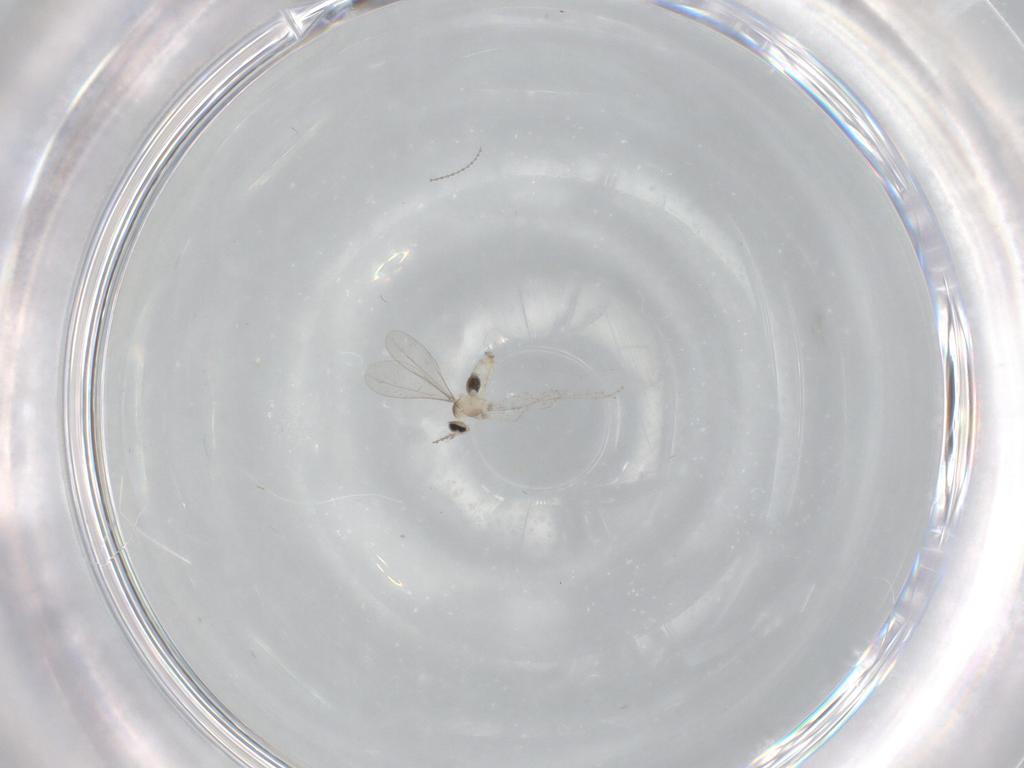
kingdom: Animalia
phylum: Arthropoda
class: Insecta
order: Diptera
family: Cecidomyiidae
